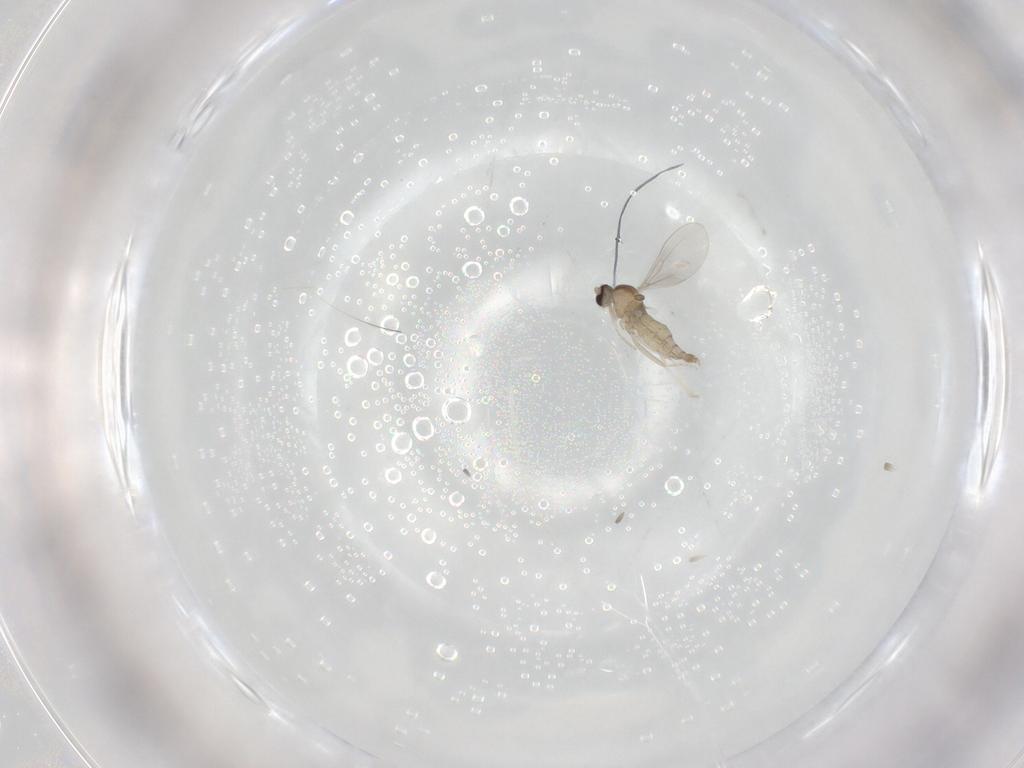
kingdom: Animalia
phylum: Arthropoda
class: Insecta
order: Diptera
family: Cecidomyiidae
